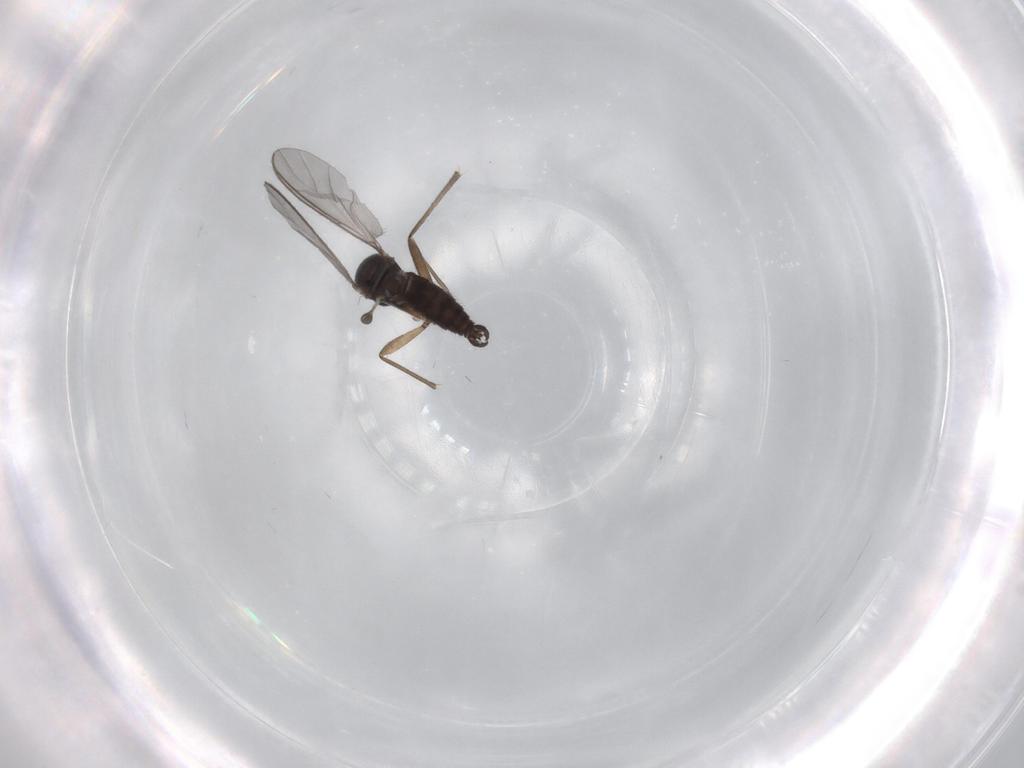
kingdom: Animalia
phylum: Arthropoda
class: Insecta
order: Diptera
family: Sciaridae
